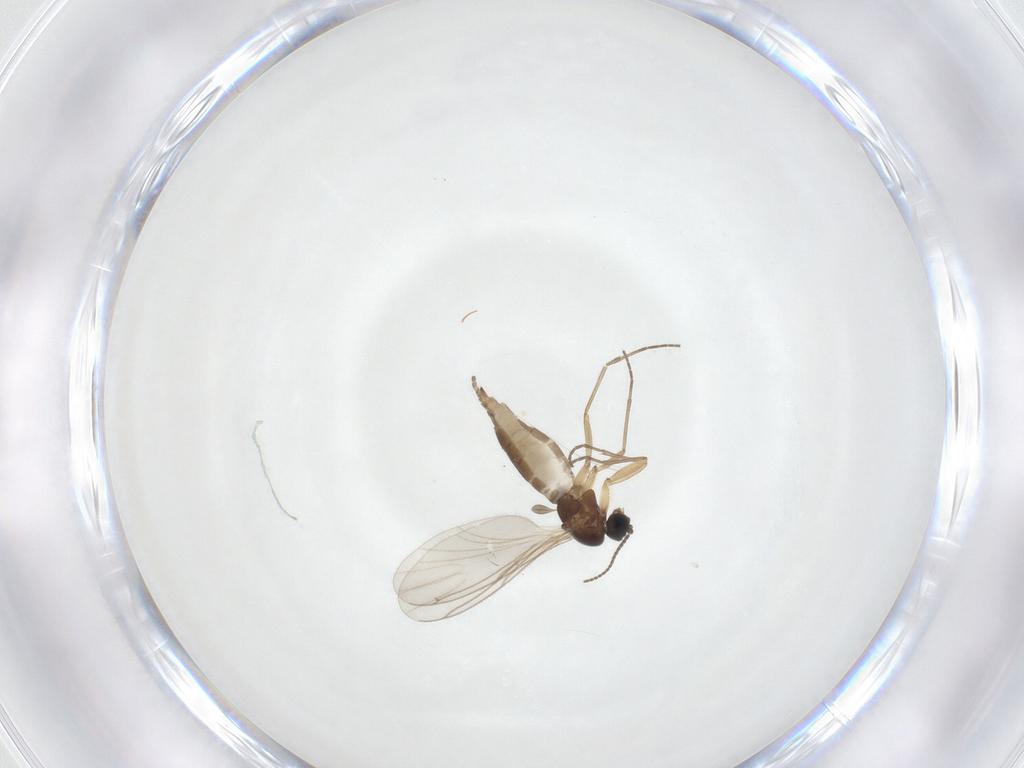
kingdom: Animalia
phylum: Arthropoda
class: Insecta
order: Diptera
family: Sciaridae
